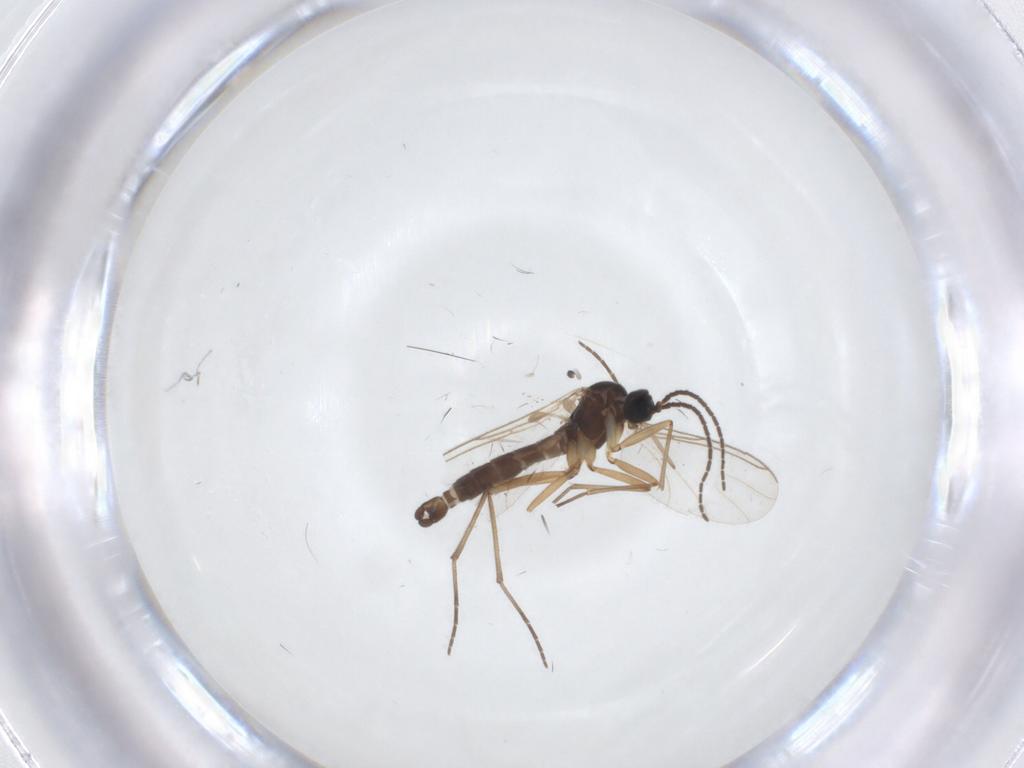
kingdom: Animalia
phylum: Arthropoda
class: Insecta
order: Diptera
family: Sciaridae
